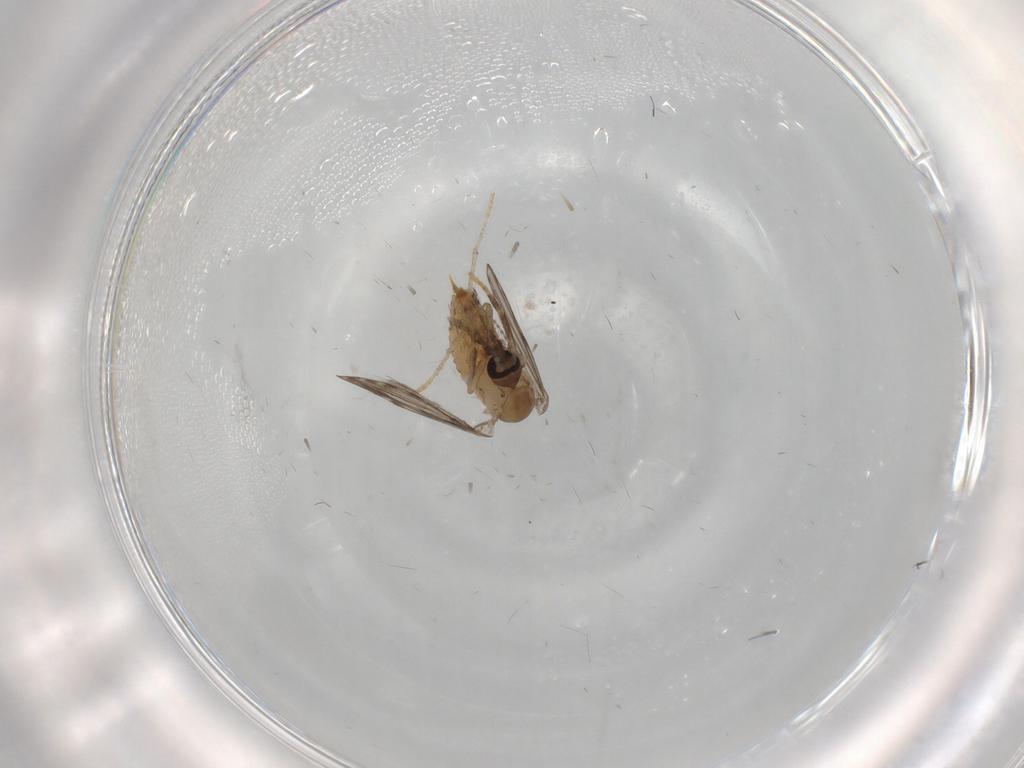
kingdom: Animalia
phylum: Arthropoda
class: Insecta
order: Diptera
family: Psychodidae
